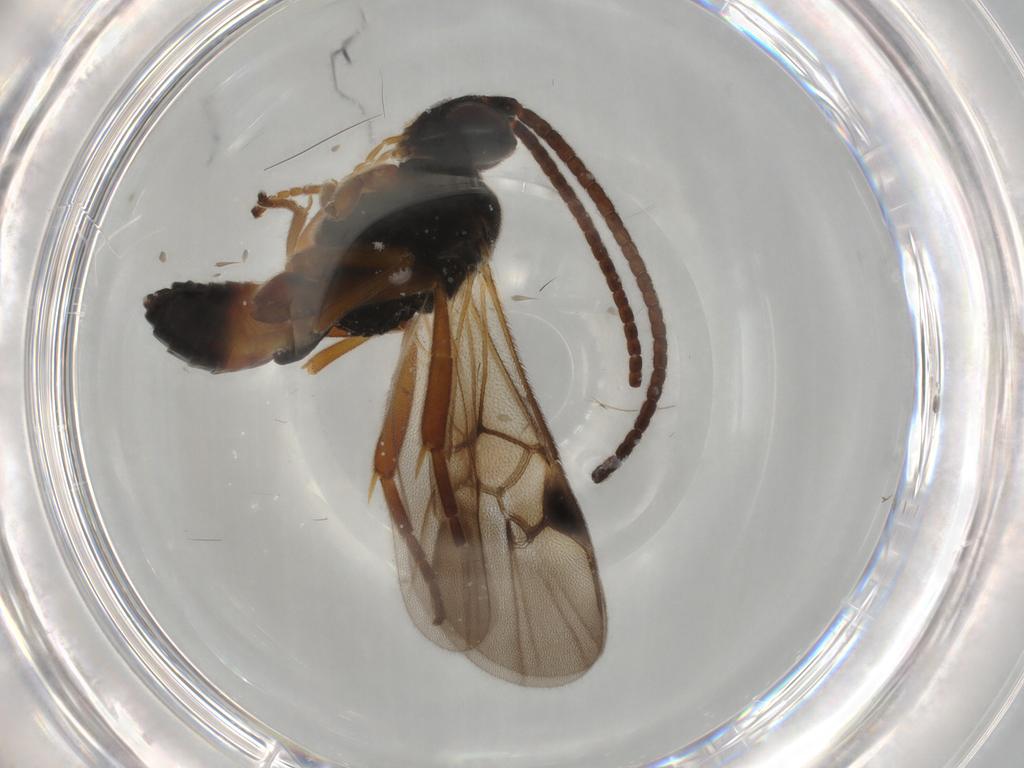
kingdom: Animalia
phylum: Arthropoda
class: Insecta
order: Hymenoptera
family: Braconidae
